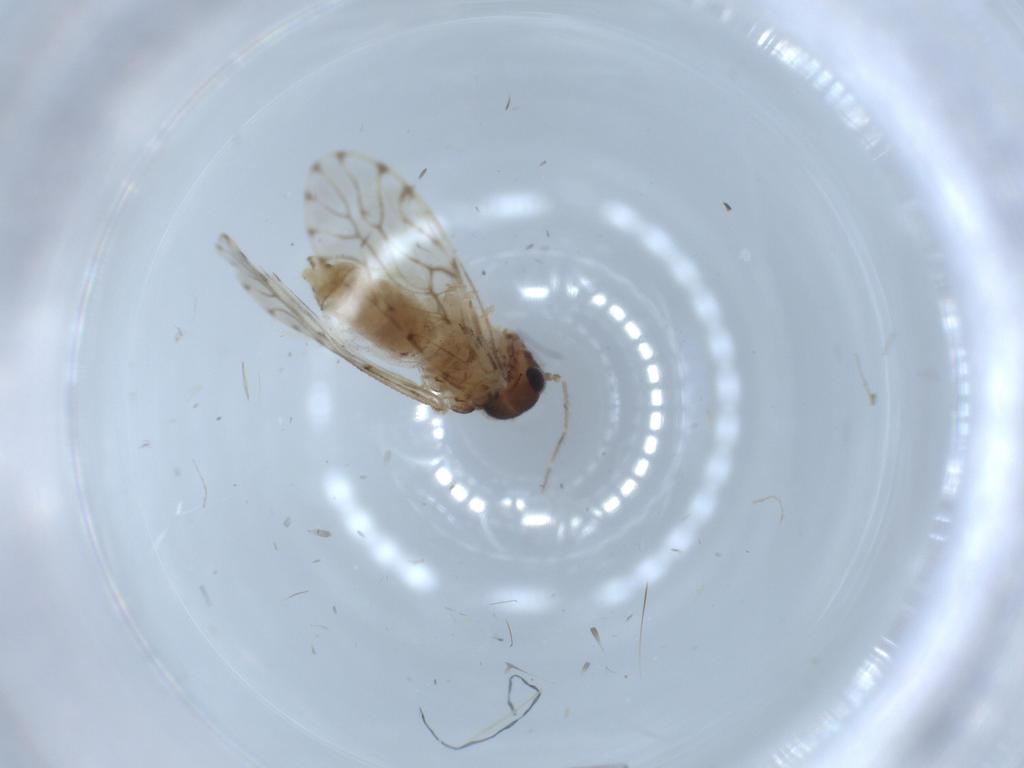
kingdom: Animalia
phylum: Arthropoda
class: Insecta
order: Psocodea
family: Epipsocidae
